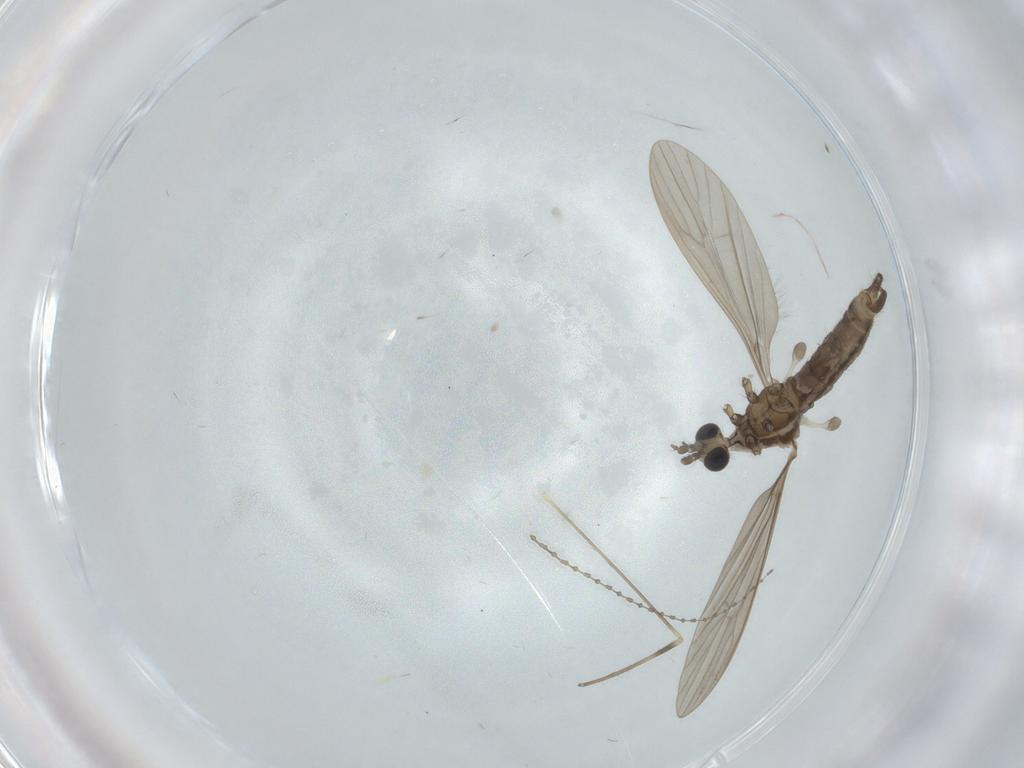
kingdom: Animalia
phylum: Arthropoda
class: Insecta
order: Diptera
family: Limoniidae
